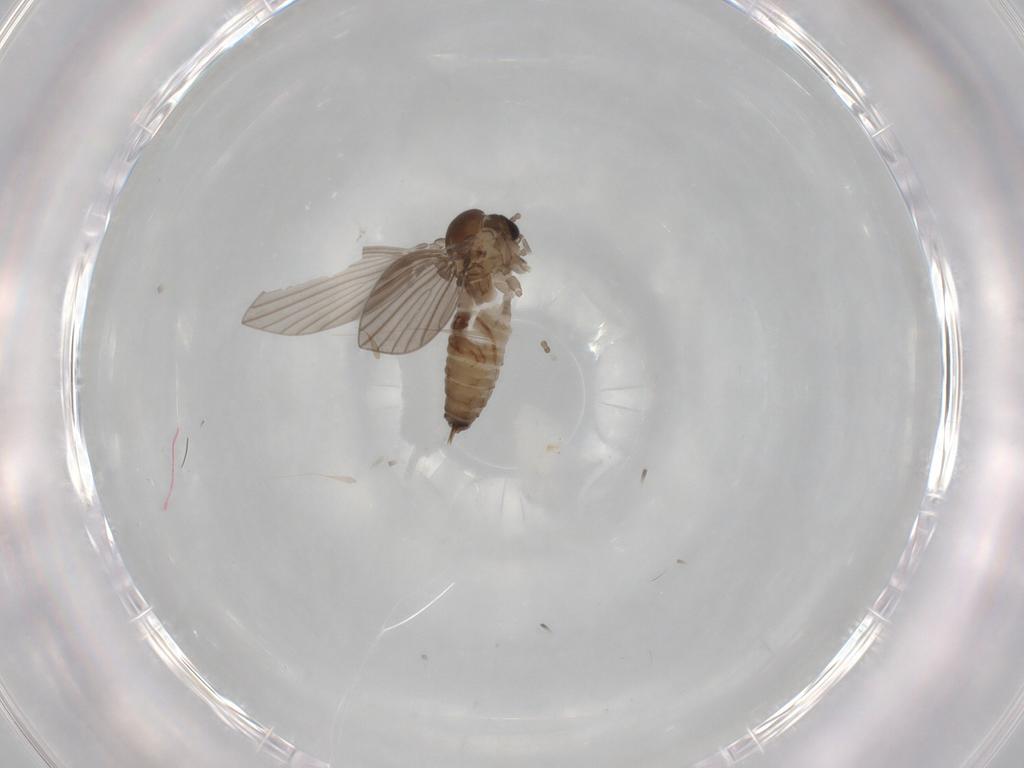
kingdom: Animalia
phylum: Arthropoda
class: Insecta
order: Diptera
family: Psychodidae
